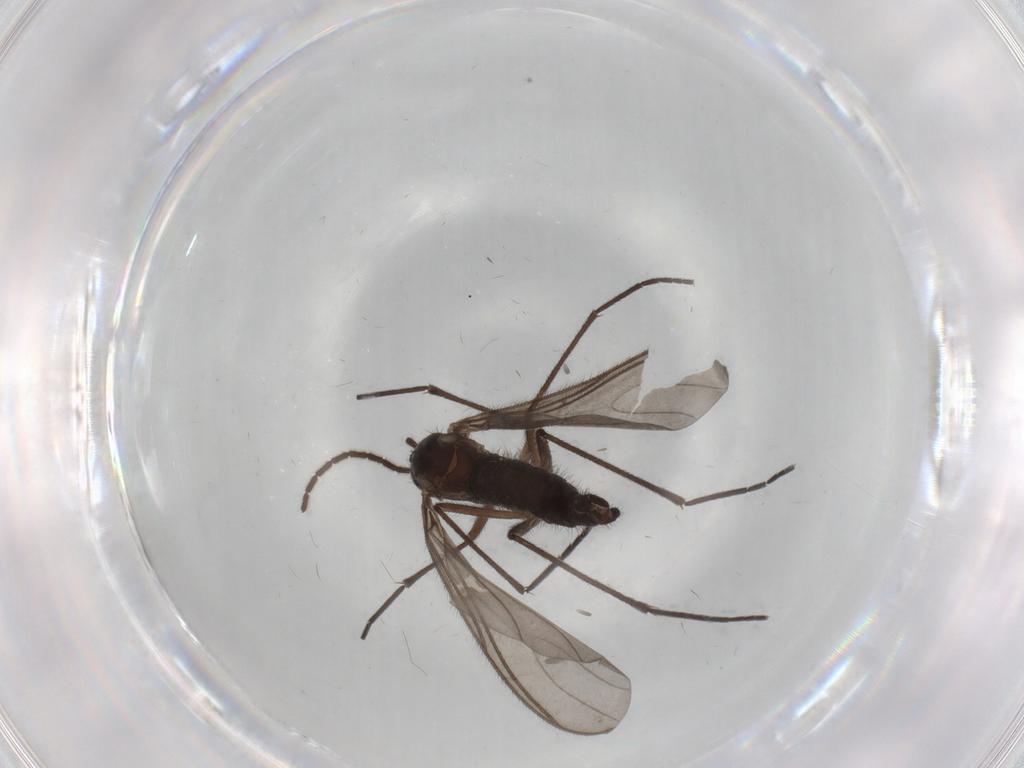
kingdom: Animalia
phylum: Arthropoda
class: Insecta
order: Diptera
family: Sciaridae
